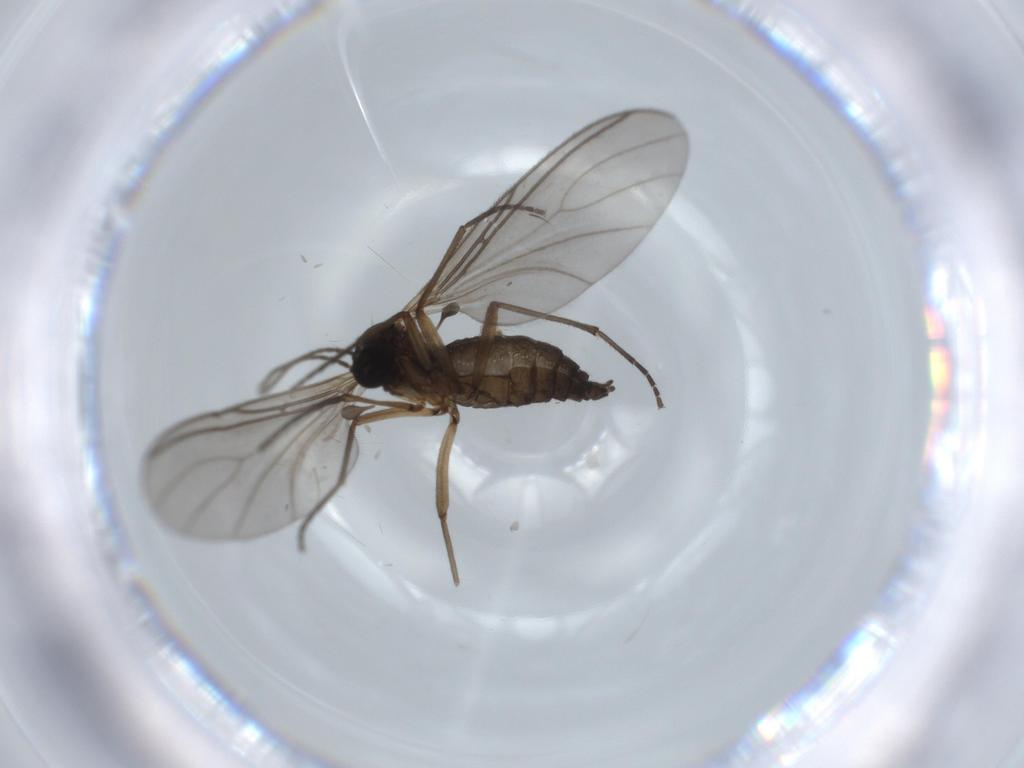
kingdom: Animalia
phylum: Arthropoda
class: Insecta
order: Diptera
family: Sciaridae
